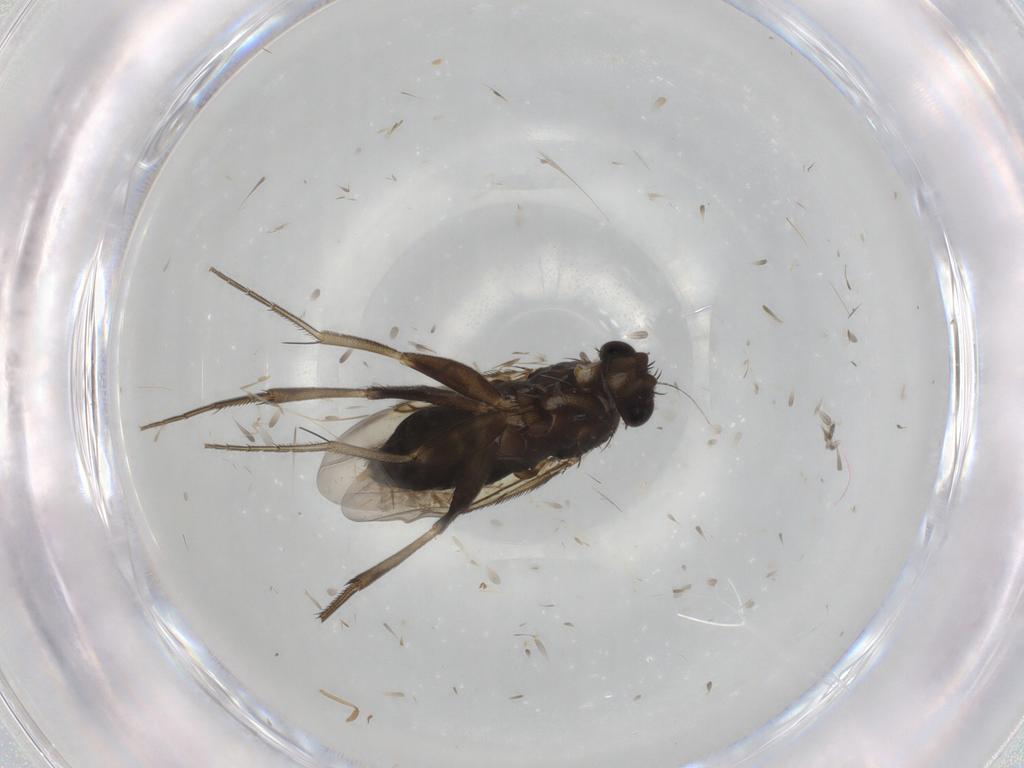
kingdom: Animalia
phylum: Arthropoda
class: Insecta
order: Diptera
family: Phoridae
